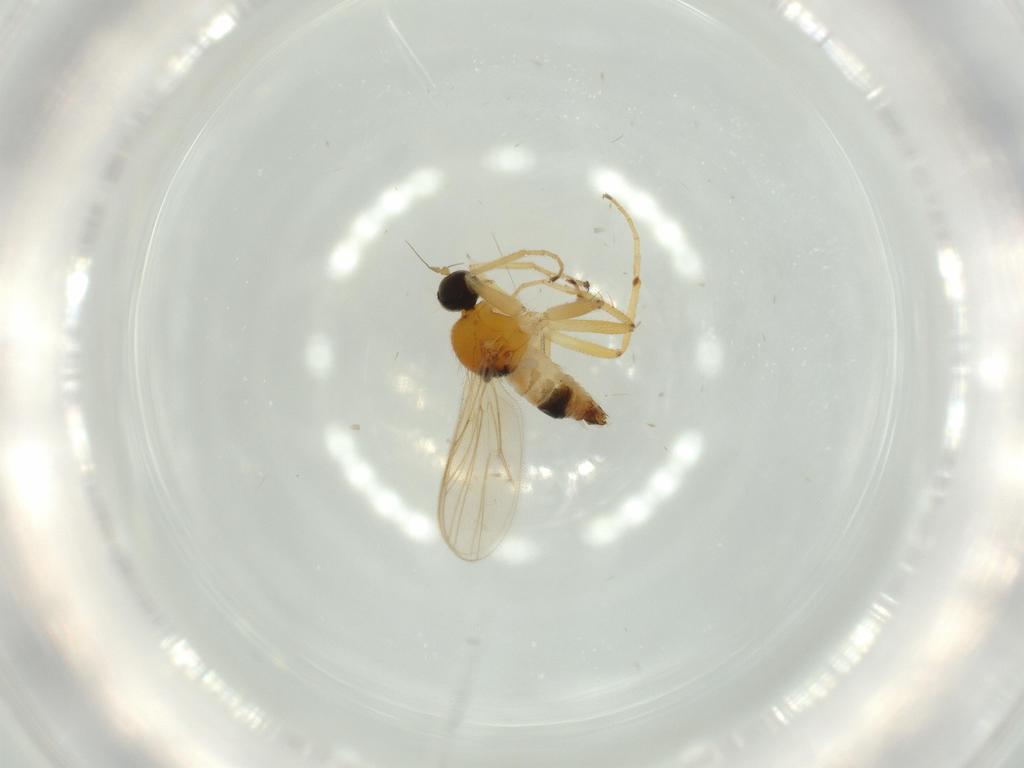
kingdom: Animalia
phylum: Arthropoda
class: Insecta
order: Diptera
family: Hybotidae
